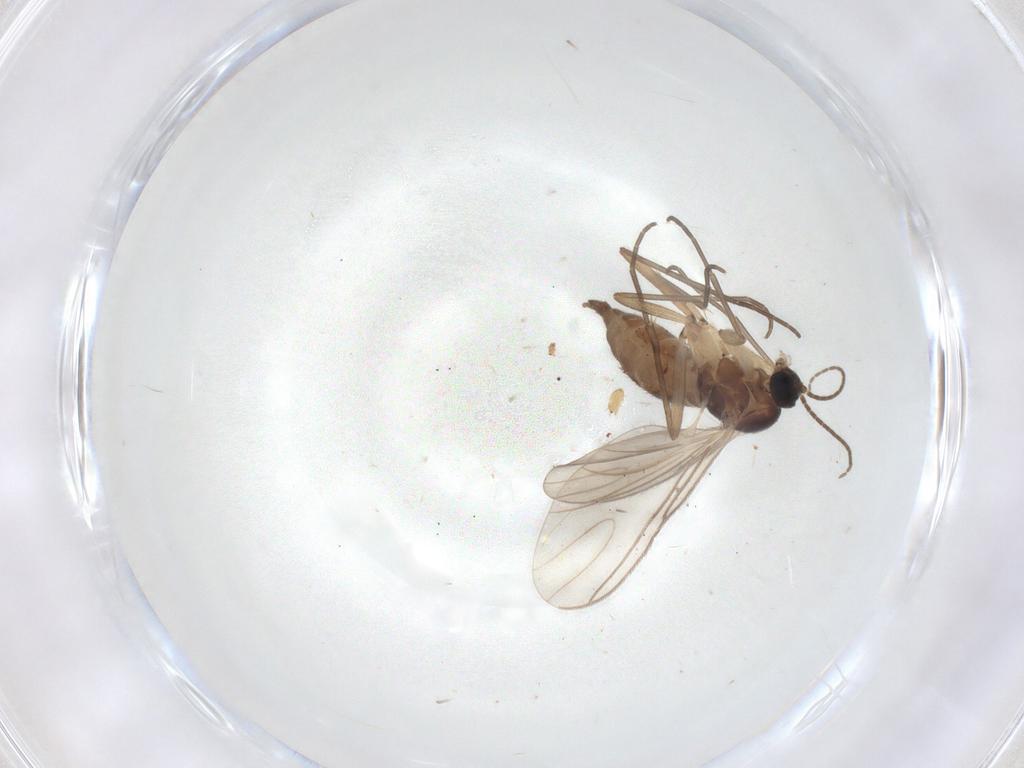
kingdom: Animalia
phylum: Arthropoda
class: Insecta
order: Diptera
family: Sciaridae
